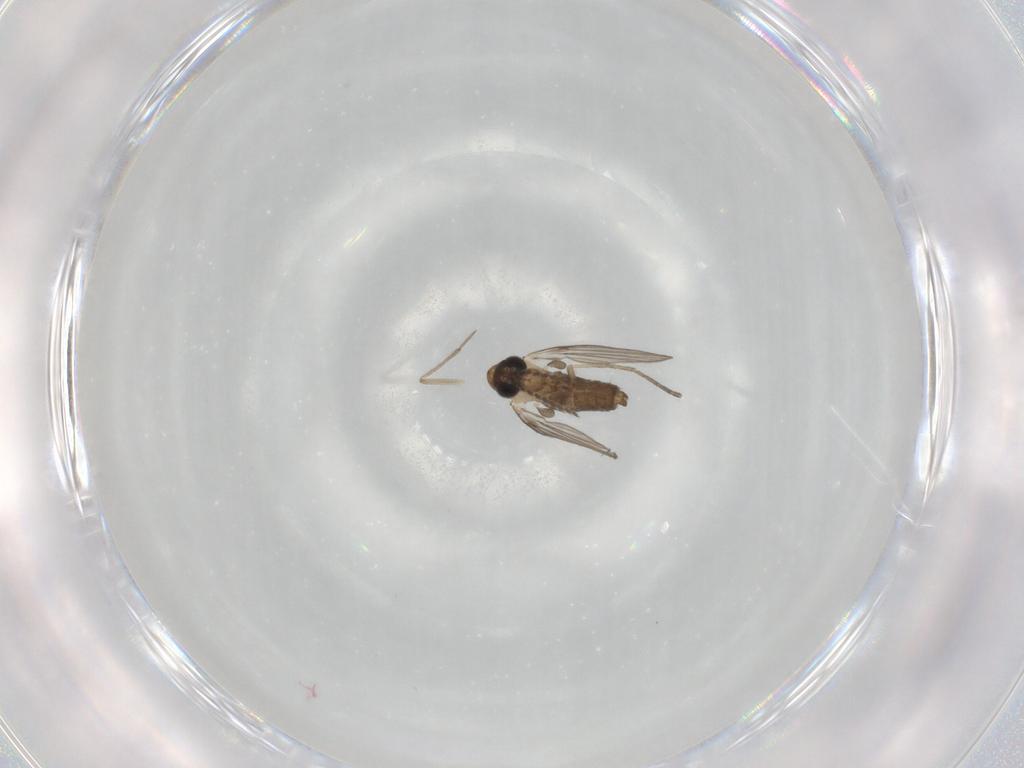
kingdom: Animalia
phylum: Arthropoda
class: Insecta
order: Diptera
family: Psychodidae
